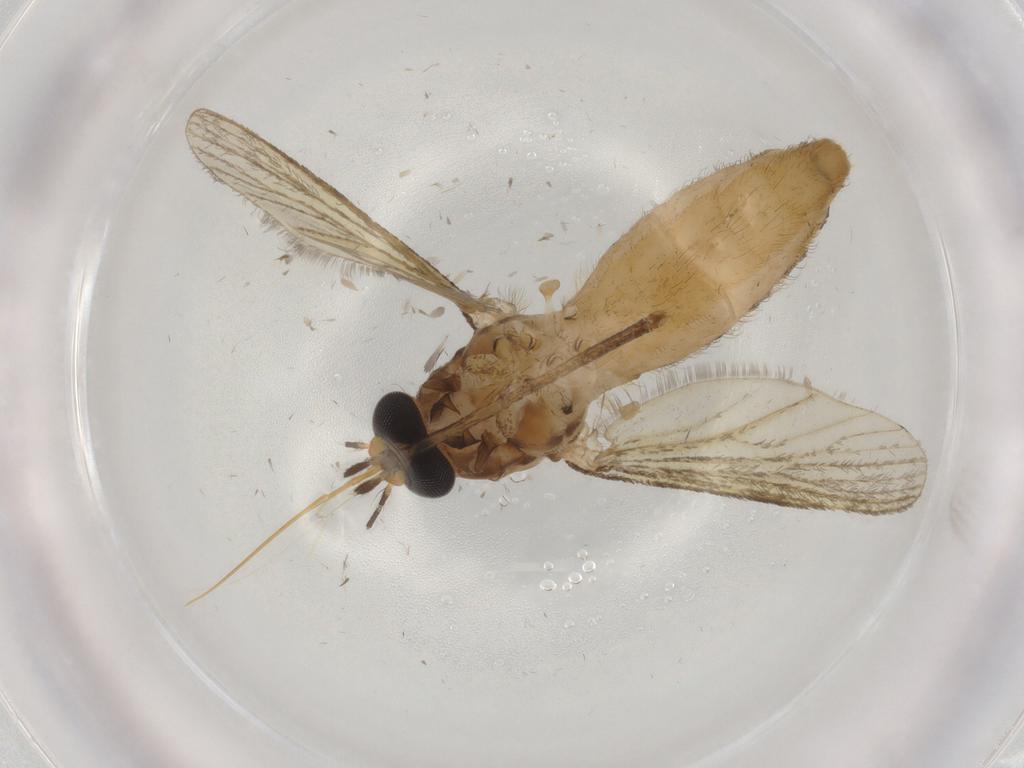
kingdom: Animalia
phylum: Arthropoda
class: Insecta
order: Diptera
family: Culicidae
